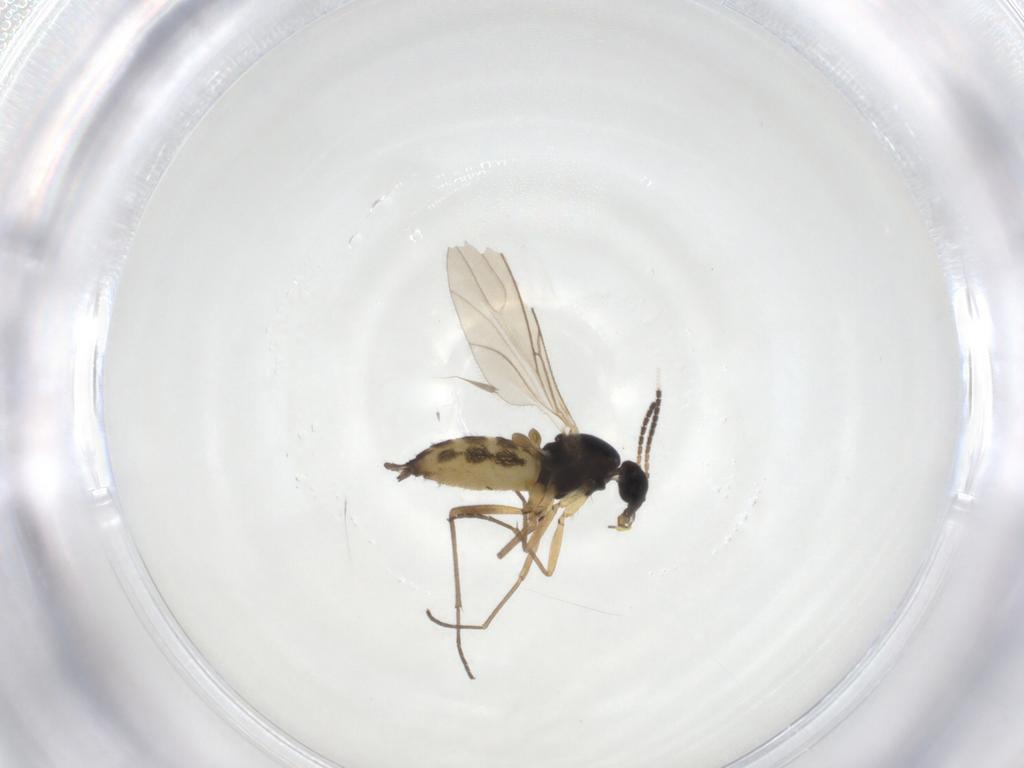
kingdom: Animalia
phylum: Arthropoda
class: Insecta
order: Diptera
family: Sciaridae
